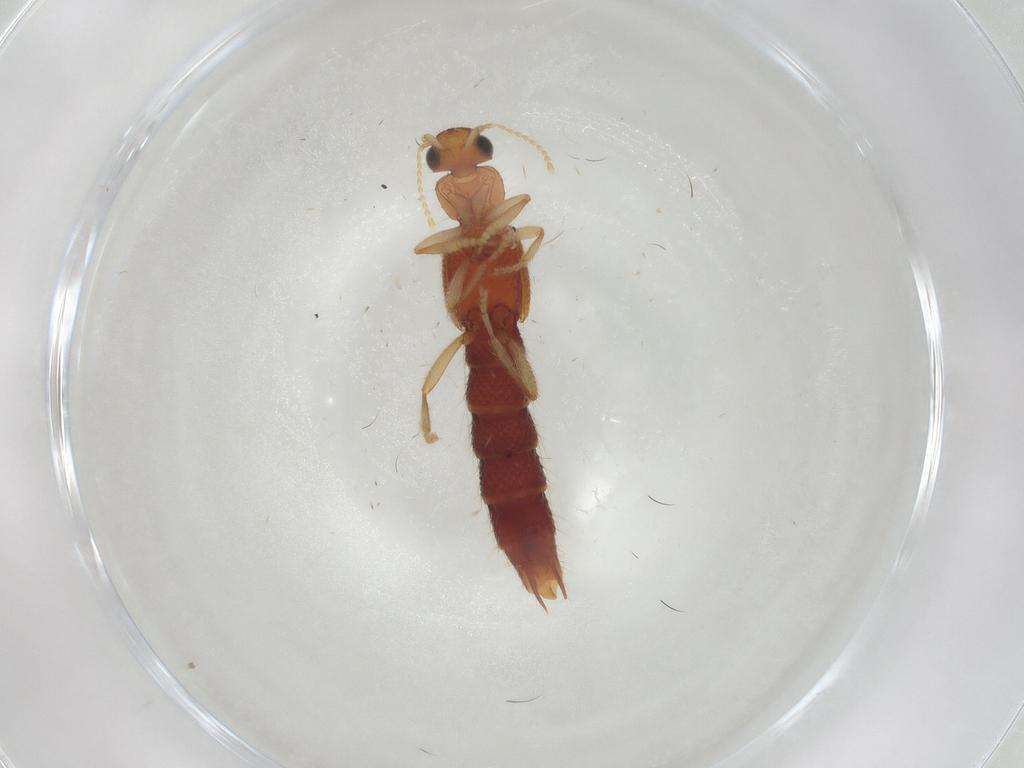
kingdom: Animalia
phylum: Arthropoda
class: Insecta
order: Coleoptera
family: Staphylinidae
